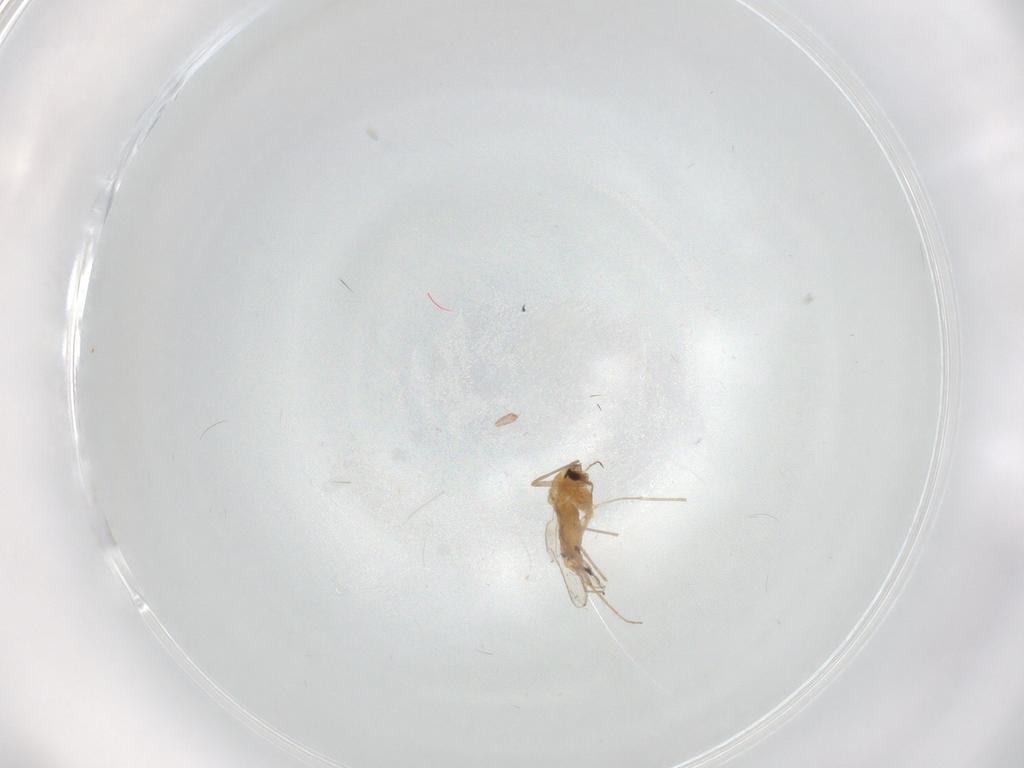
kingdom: Animalia
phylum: Arthropoda
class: Insecta
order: Diptera
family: Chironomidae
